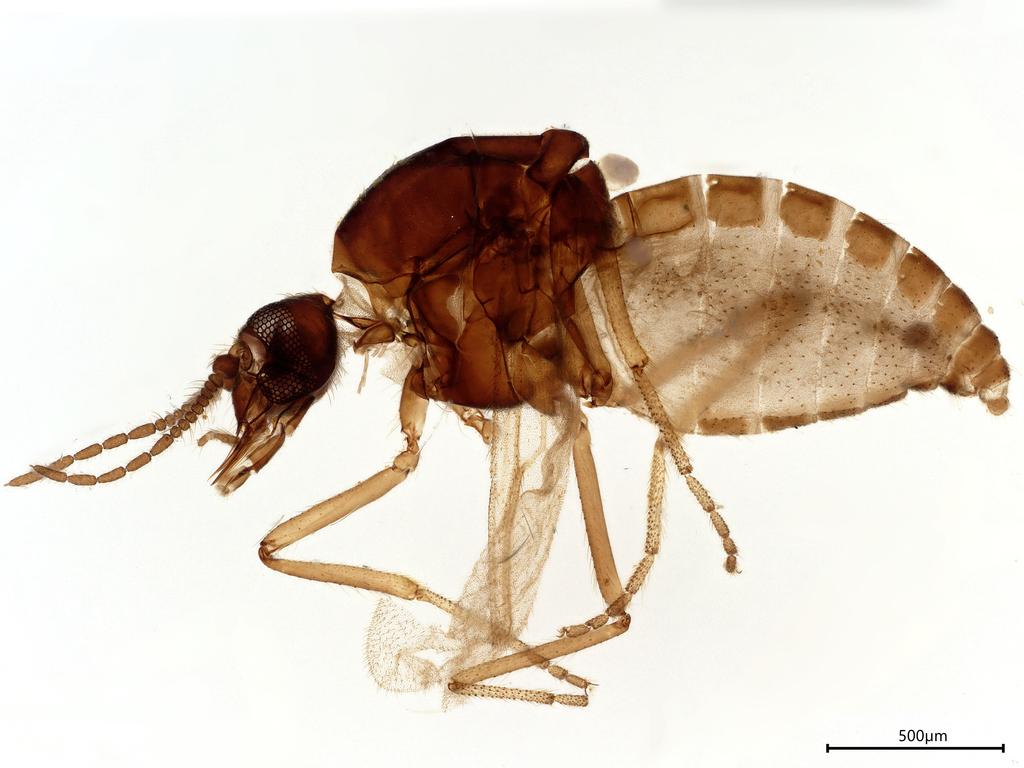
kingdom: Animalia
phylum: Arthropoda
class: Insecta
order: Diptera
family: Ceratopogonidae
